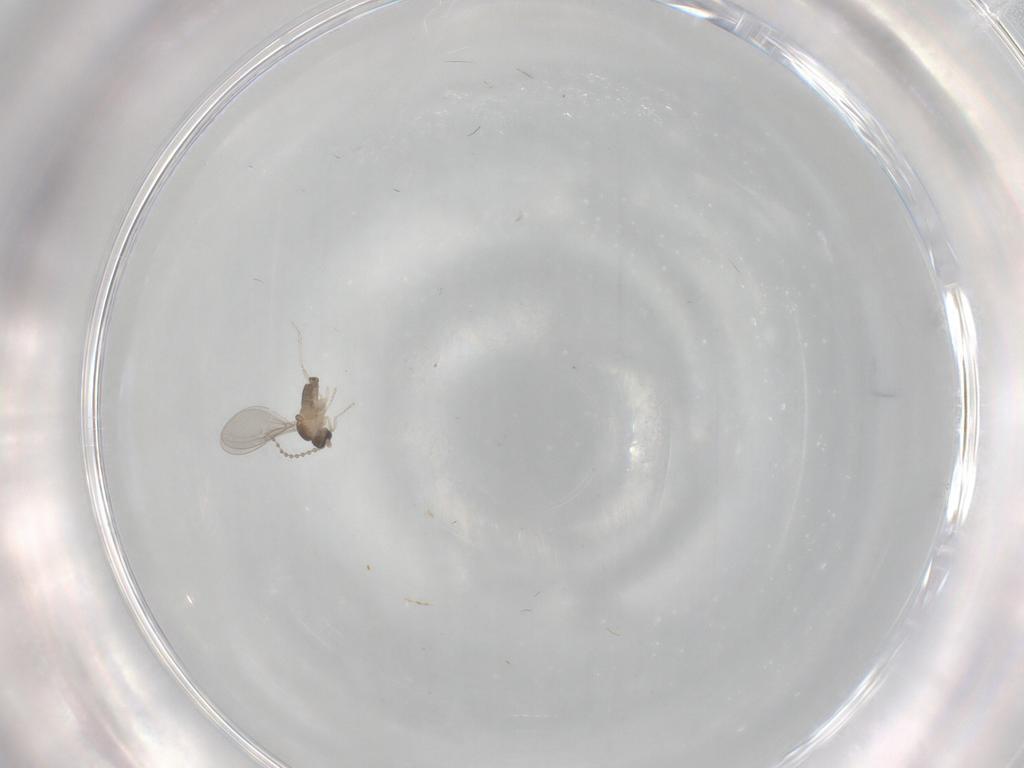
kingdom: Animalia
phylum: Arthropoda
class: Insecta
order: Diptera
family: Cecidomyiidae
